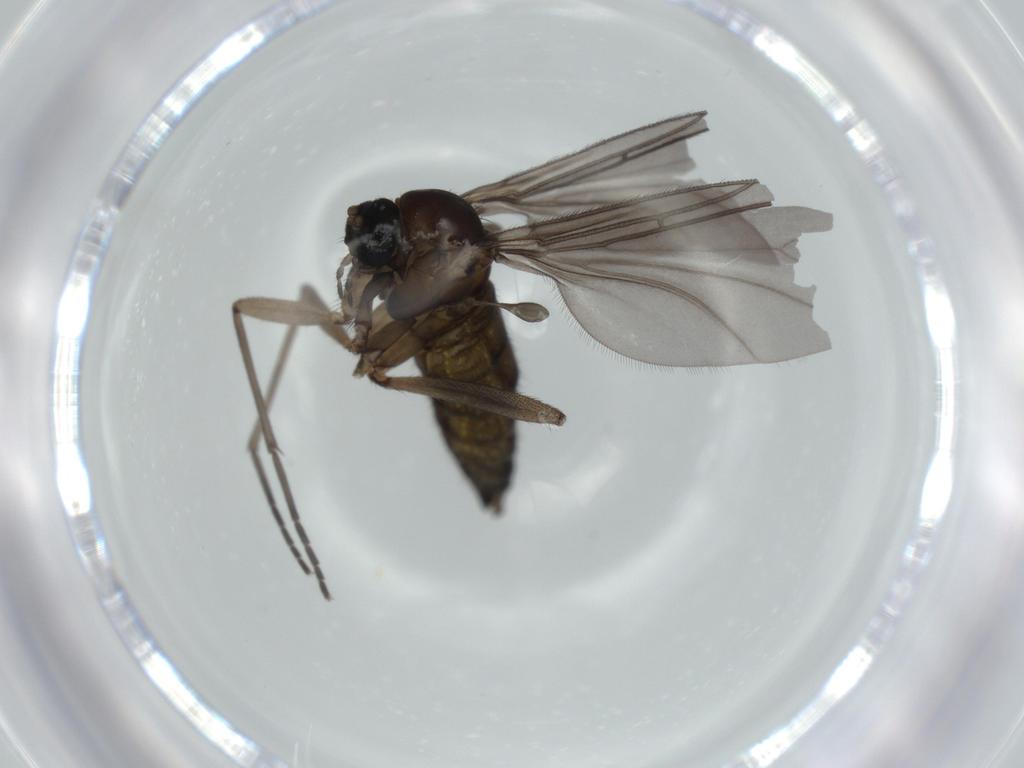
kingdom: Animalia
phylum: Arthropoda
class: Insecta
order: Diptera
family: Sciaridae
